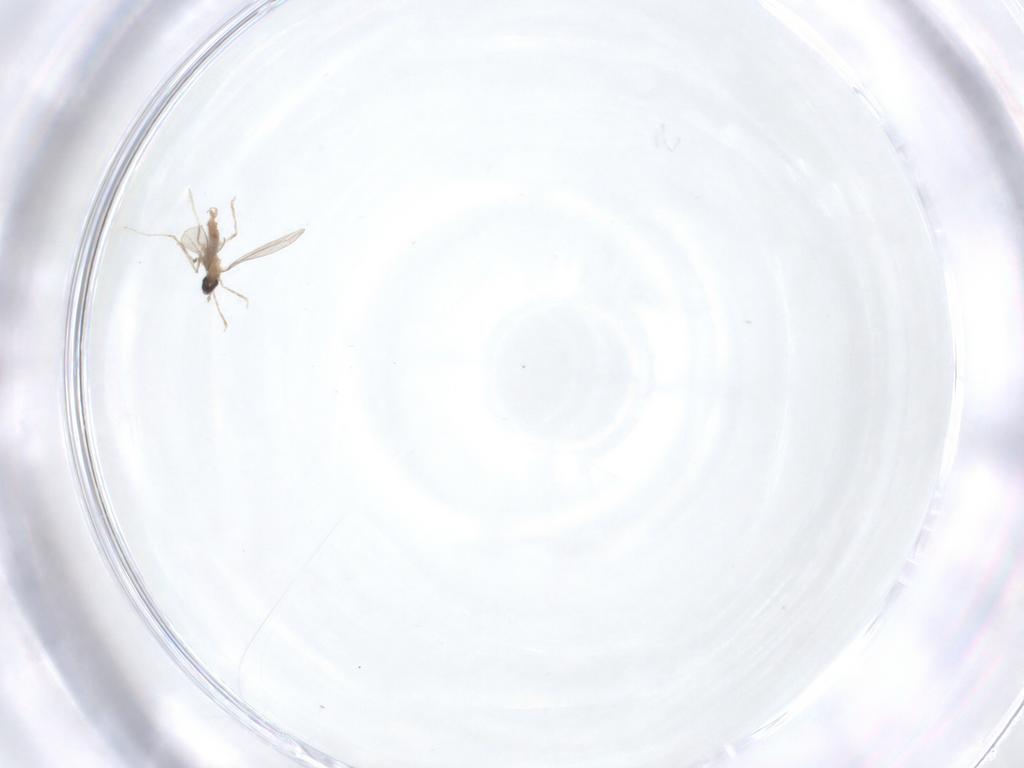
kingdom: Animalia
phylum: Arthropoda
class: Insecta
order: Diptera
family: Cecidomyiidae
